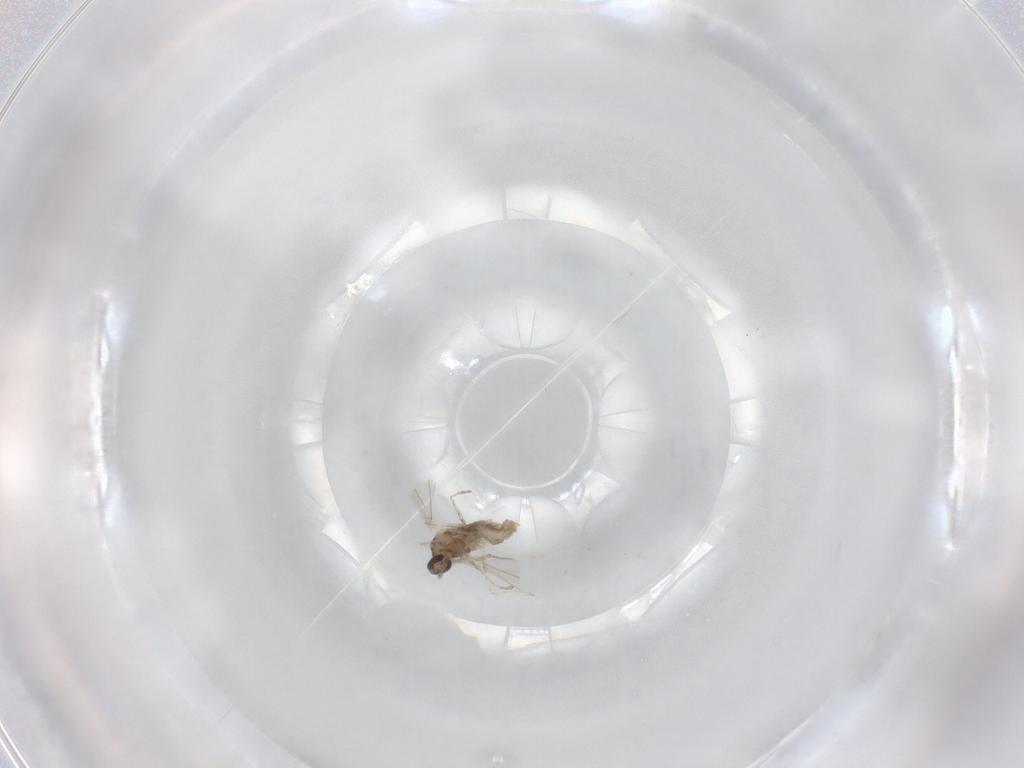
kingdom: Animalia
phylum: Arthropoda
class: Insecta
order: Diptera
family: Cecidomyiidae
